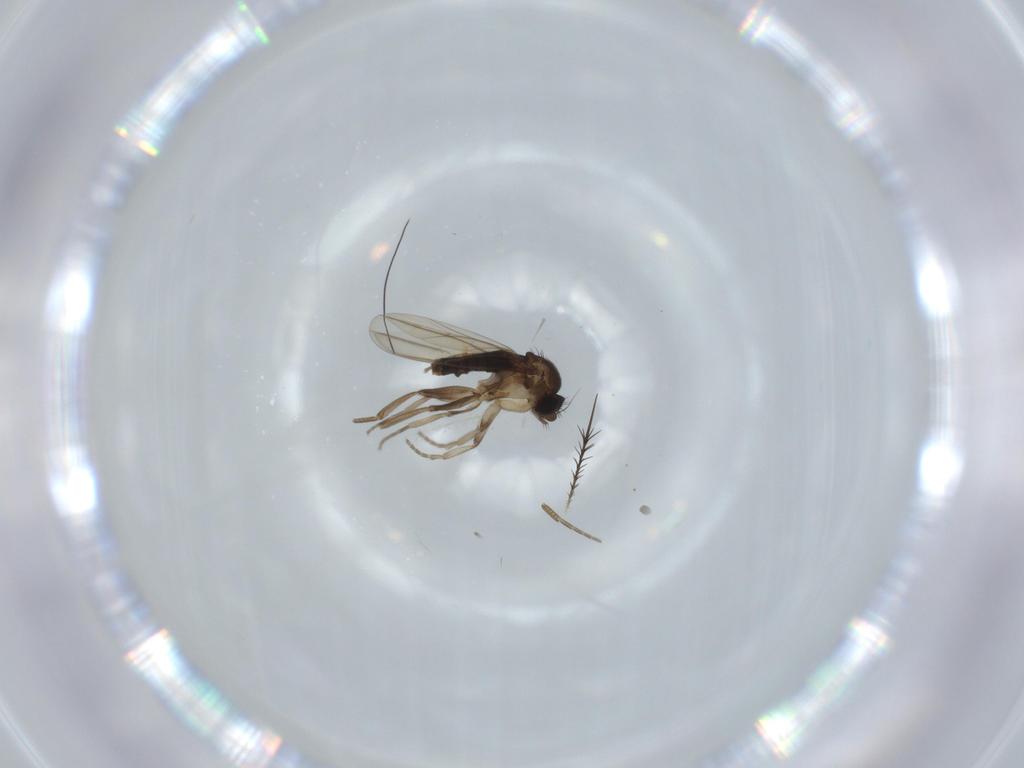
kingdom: Animalia
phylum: Arthropoda
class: Insecta
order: Diptera
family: Phoridae
